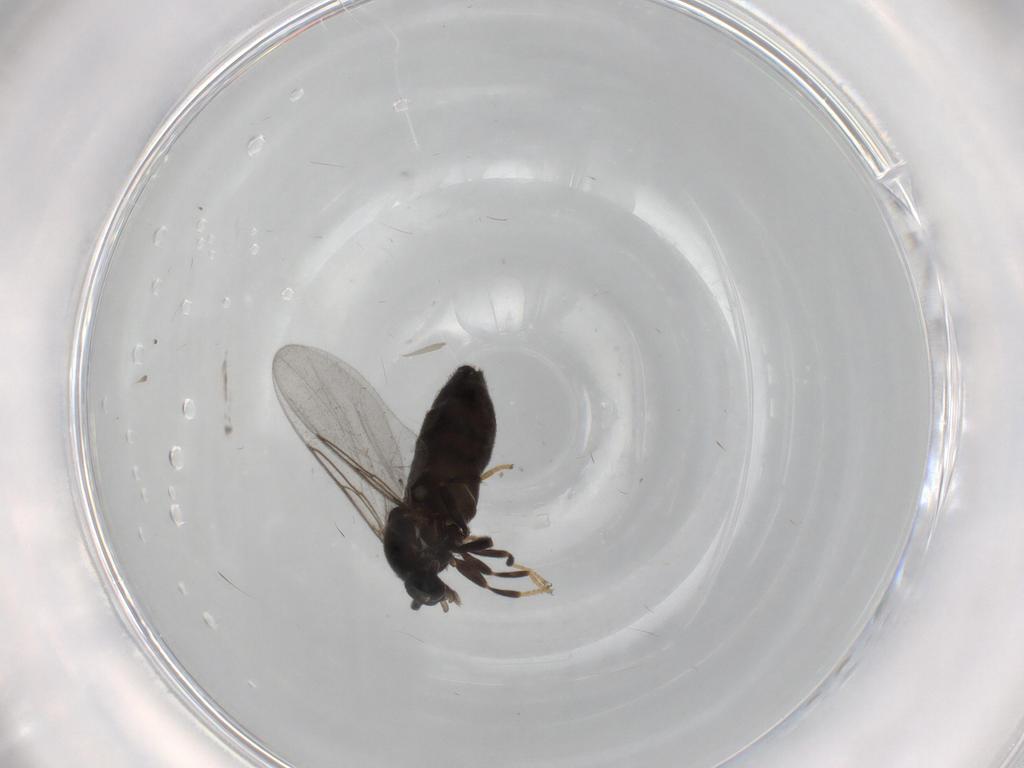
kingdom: Animalia
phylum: Arthropoda
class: Insecta
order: Diptera
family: Scatopsidae
